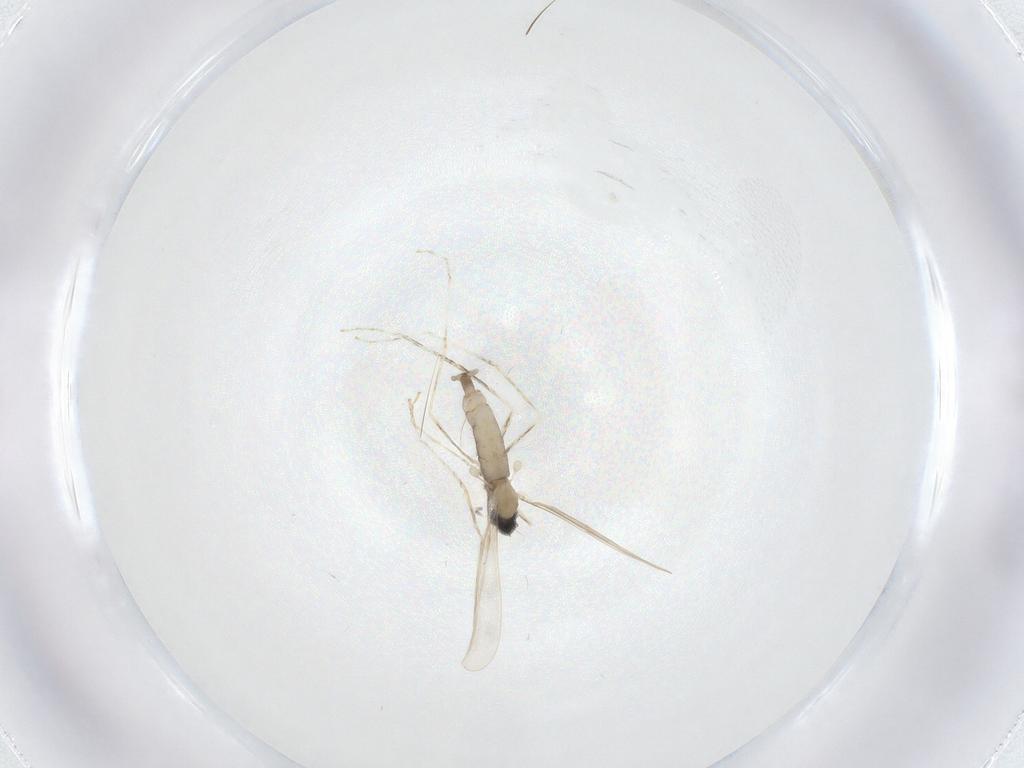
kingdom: Animalia
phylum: Arthropoda
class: Insecta
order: Diptera
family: Cecidomyiidae
